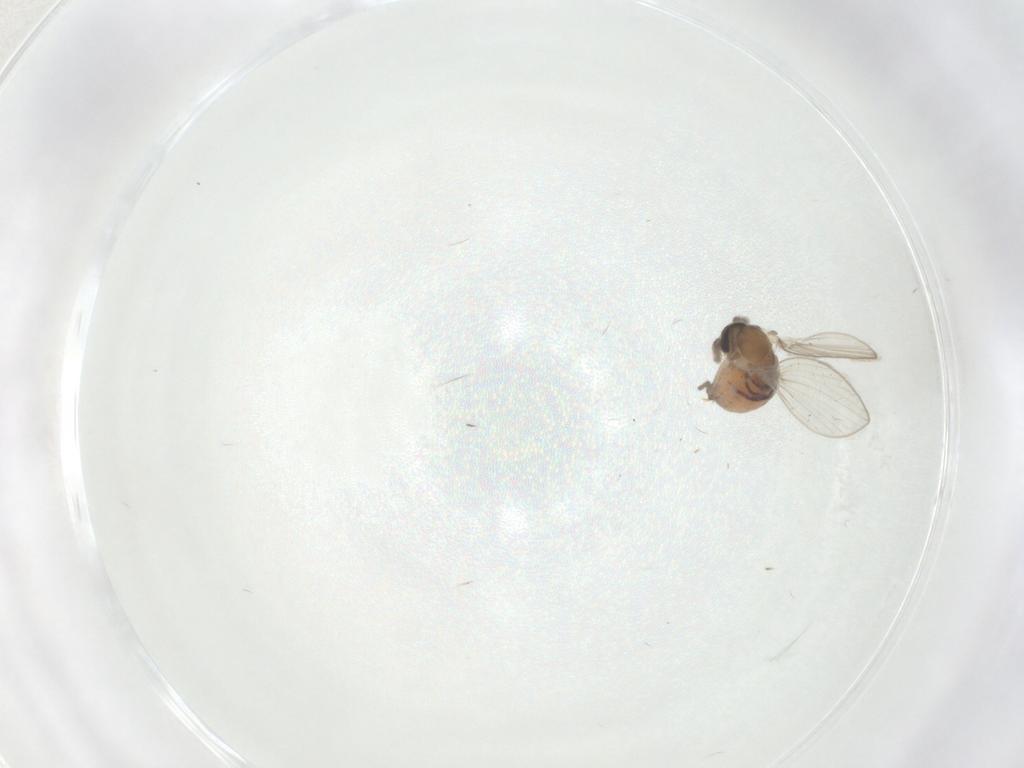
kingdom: Animalia
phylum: Arthropoda
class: Insecta
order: Diptera
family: Psychodidae
